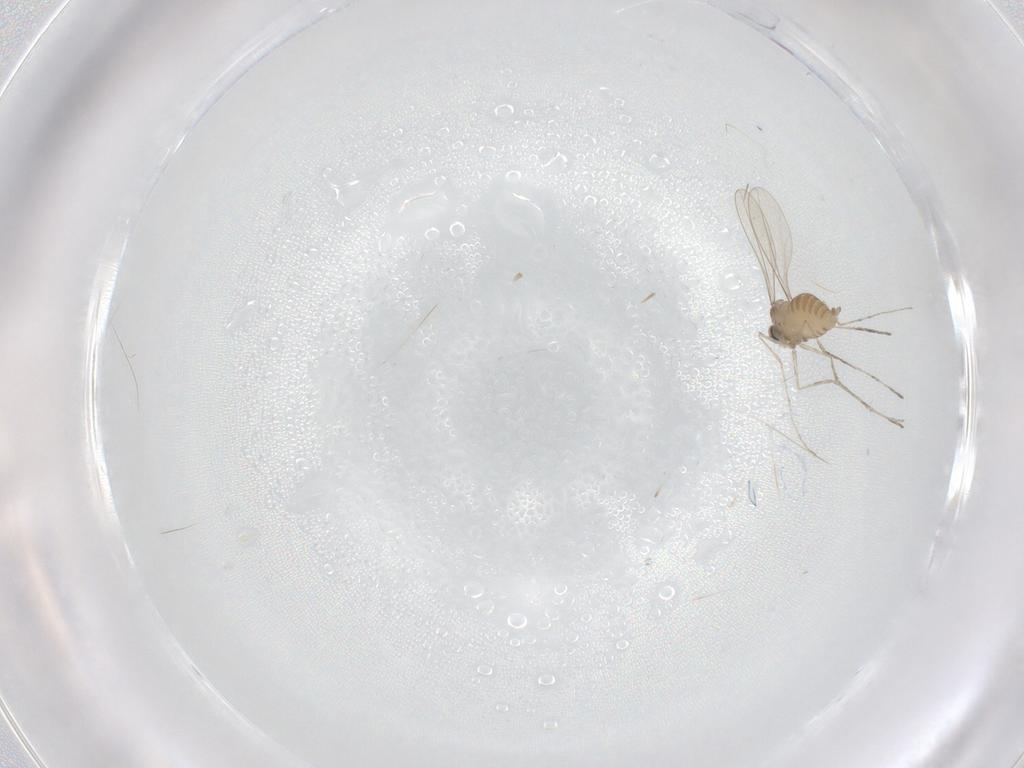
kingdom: Animalia
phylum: Arthropoda
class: Insecta
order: Diptera
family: Cecidomyiidae
